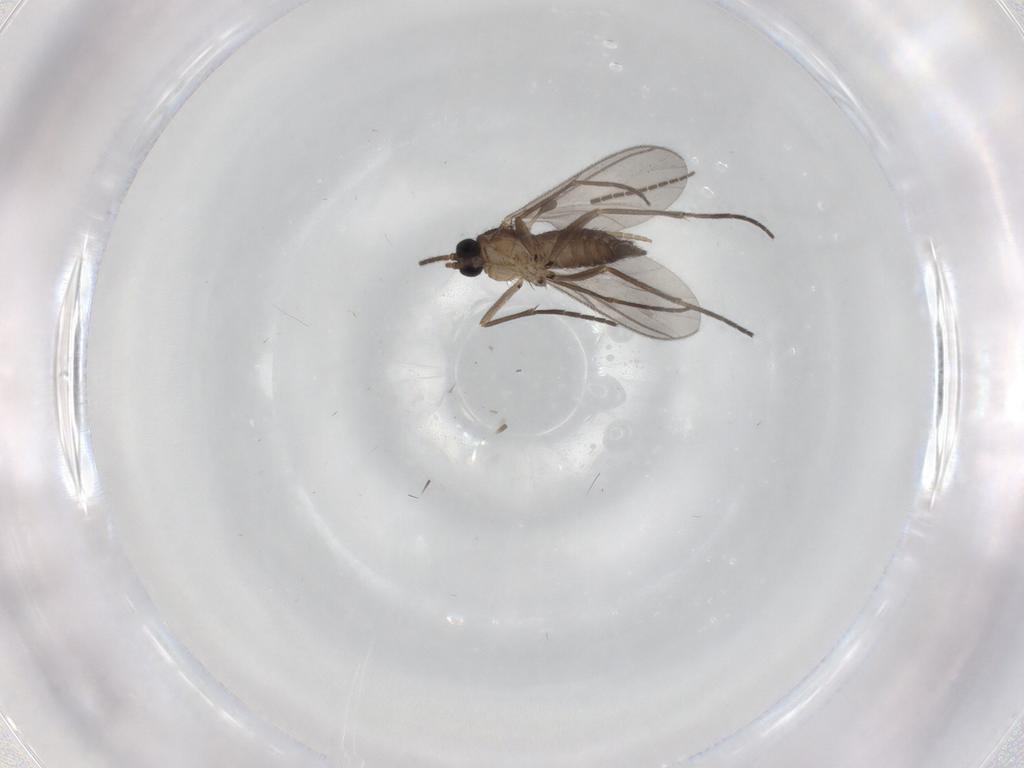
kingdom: Animalia
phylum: Arthropoda
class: Insecta
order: Diptera
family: Sciaridae
